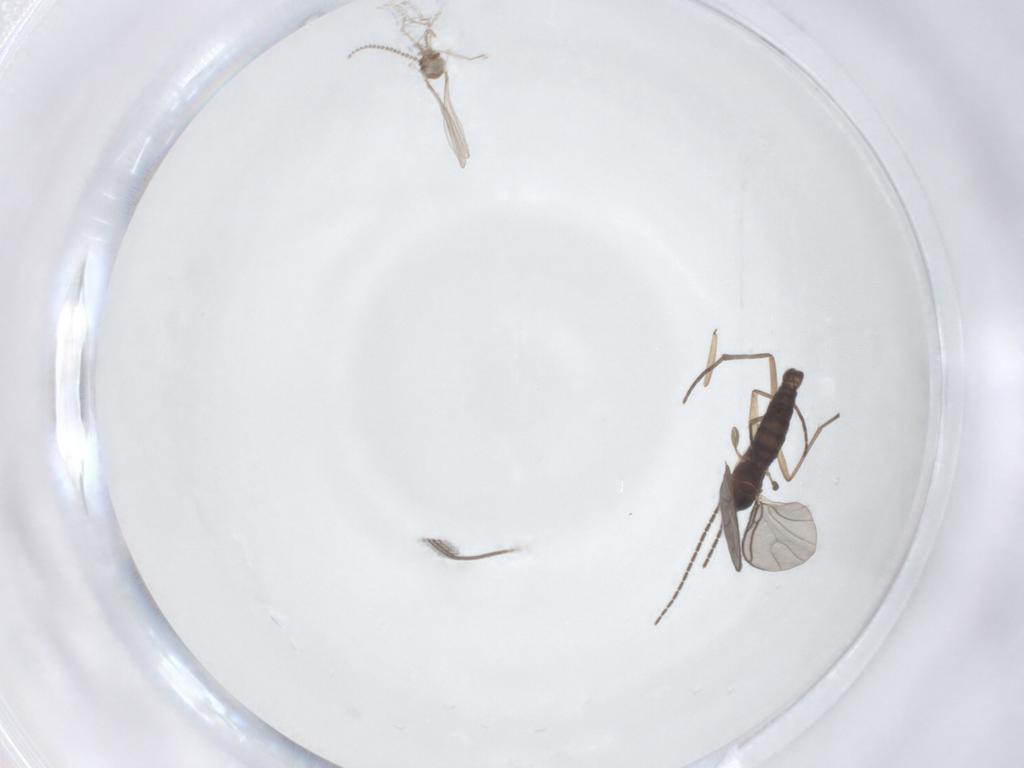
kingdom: Animalia
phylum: Arthropoda
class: Insecta
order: Diptera
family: Cecidomyiidae
